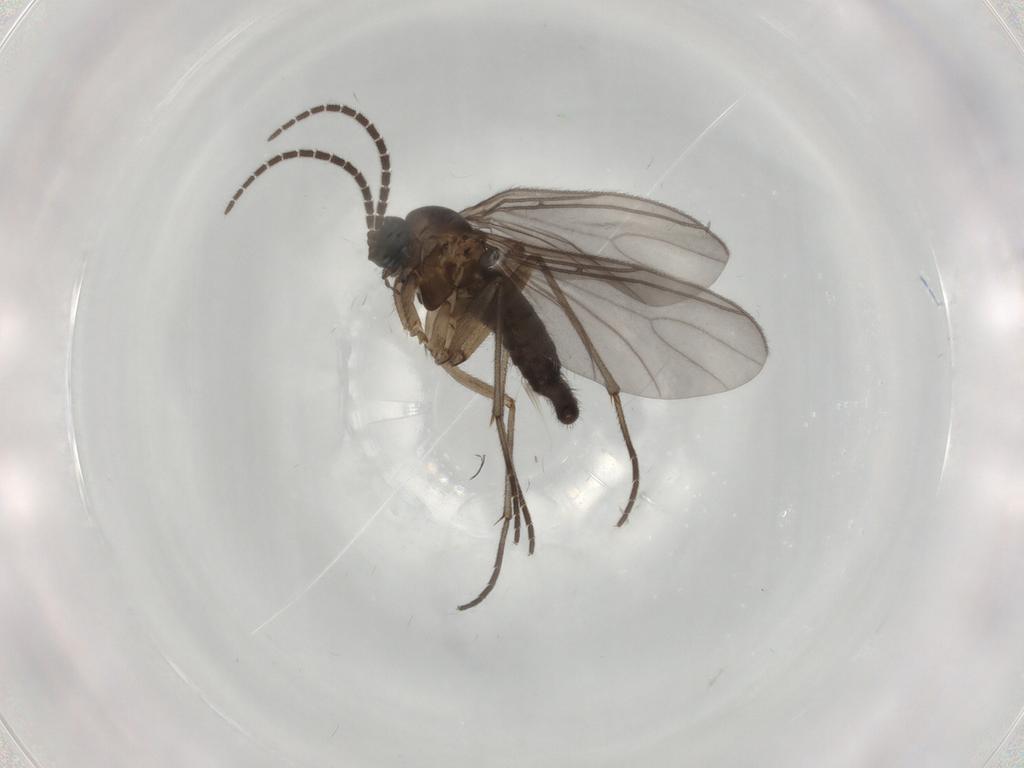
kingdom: Animalia
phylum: Arthropoda
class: Insecta
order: Diptera
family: Sciaridae
